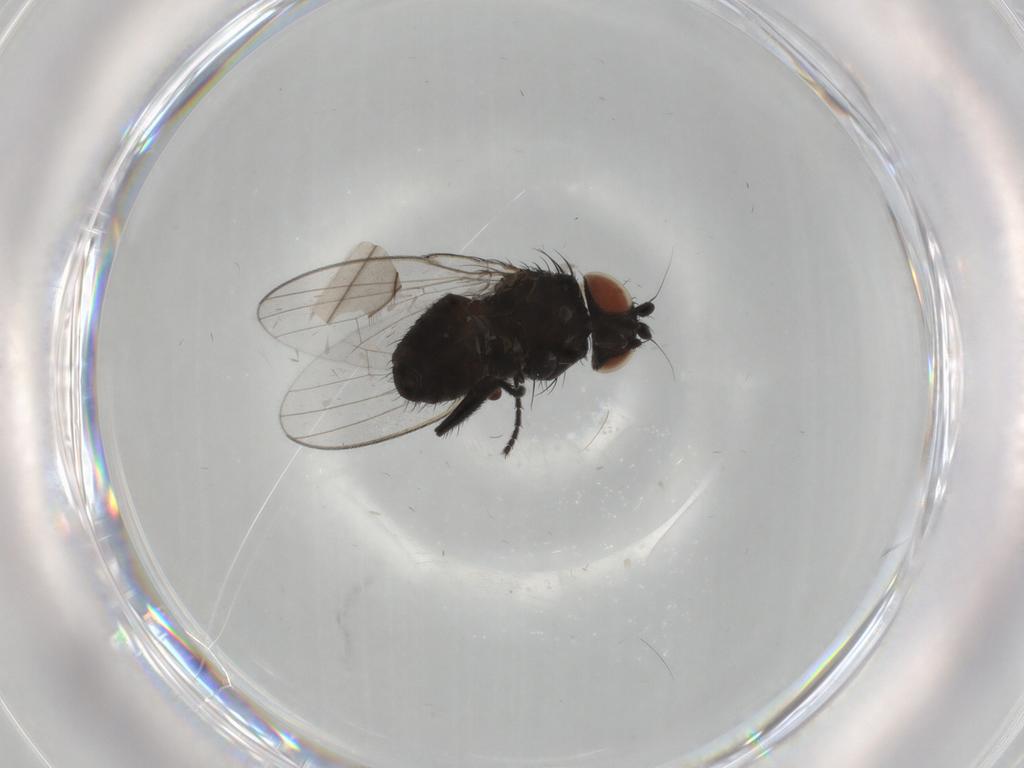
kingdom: Animalia
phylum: Arthropoda
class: Insecta
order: Diptera
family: Milichiidae
